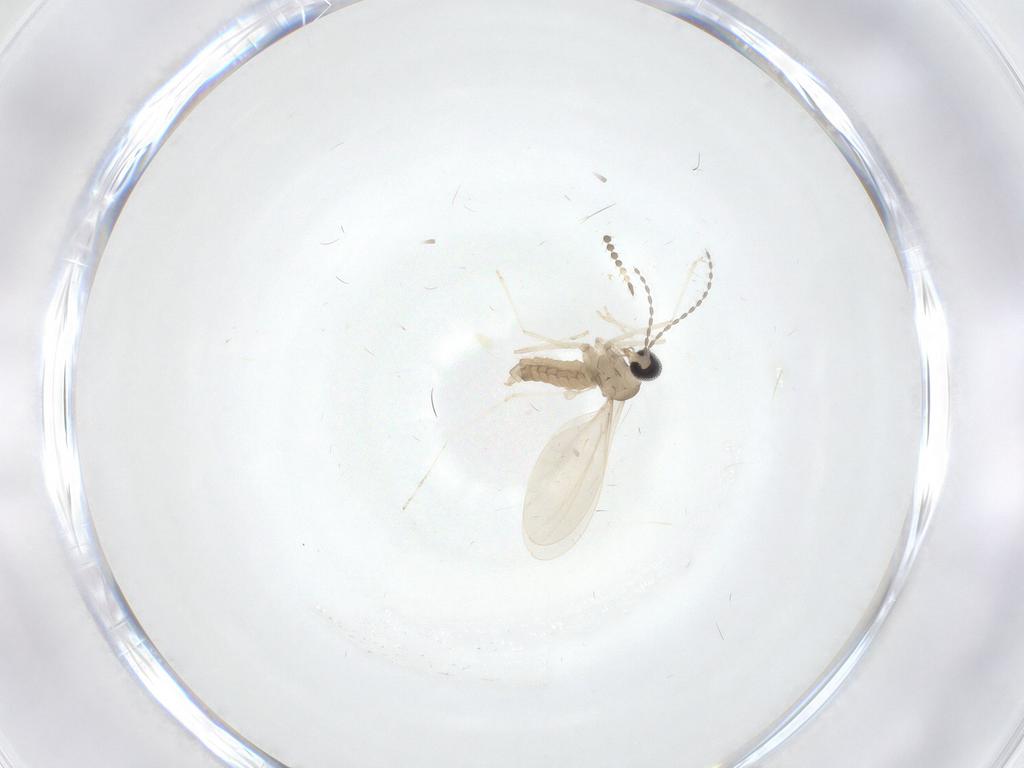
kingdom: Animalia
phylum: Arthropoda
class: Insecta
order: Diptera
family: Cecidomyiidae
